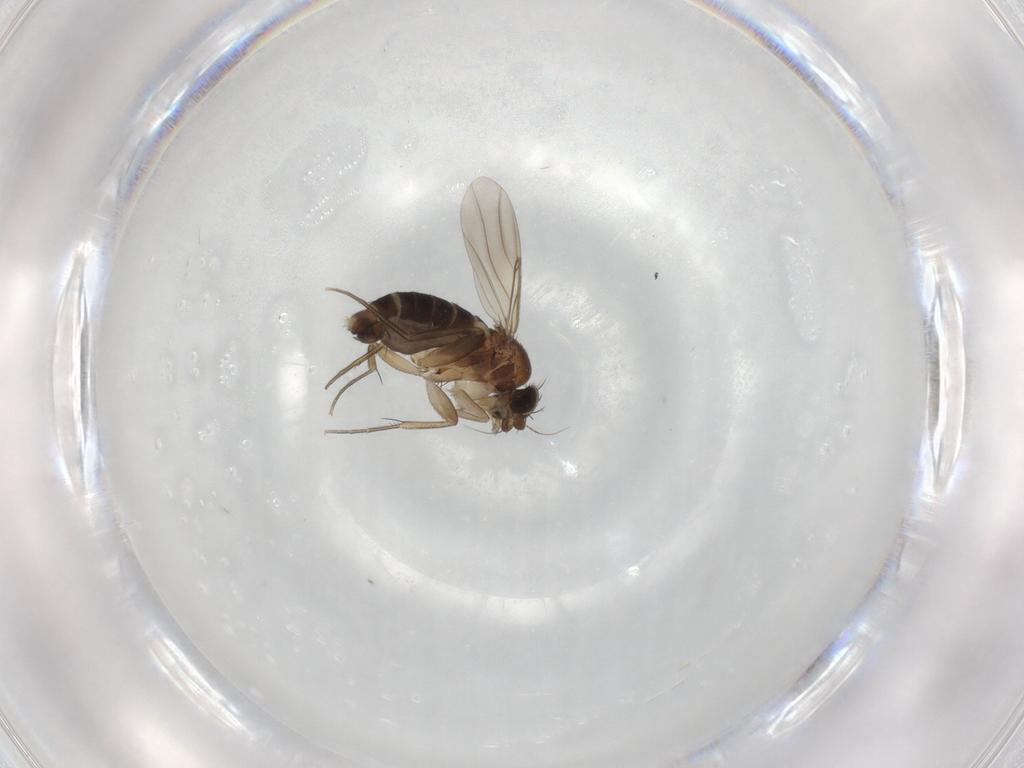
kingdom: Animalia
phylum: Arthropoda
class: Insecta
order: Diptera
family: Phoridae
